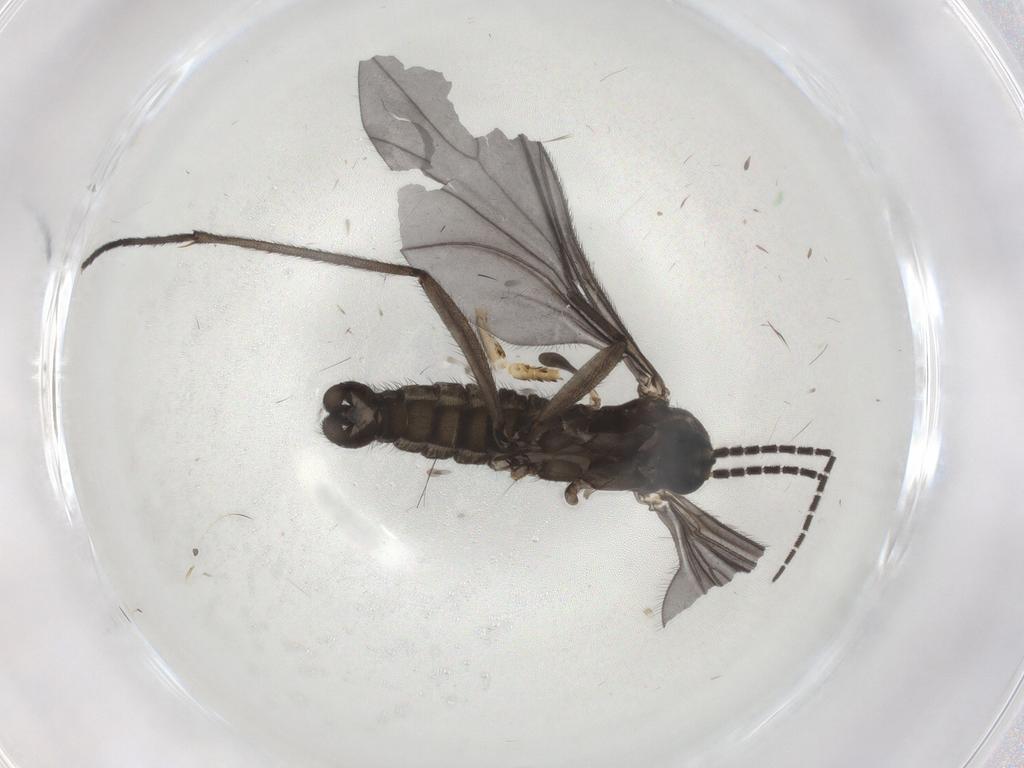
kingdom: Animalia
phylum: Arthropoda
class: Insecta
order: Diptera
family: Sciaridae
